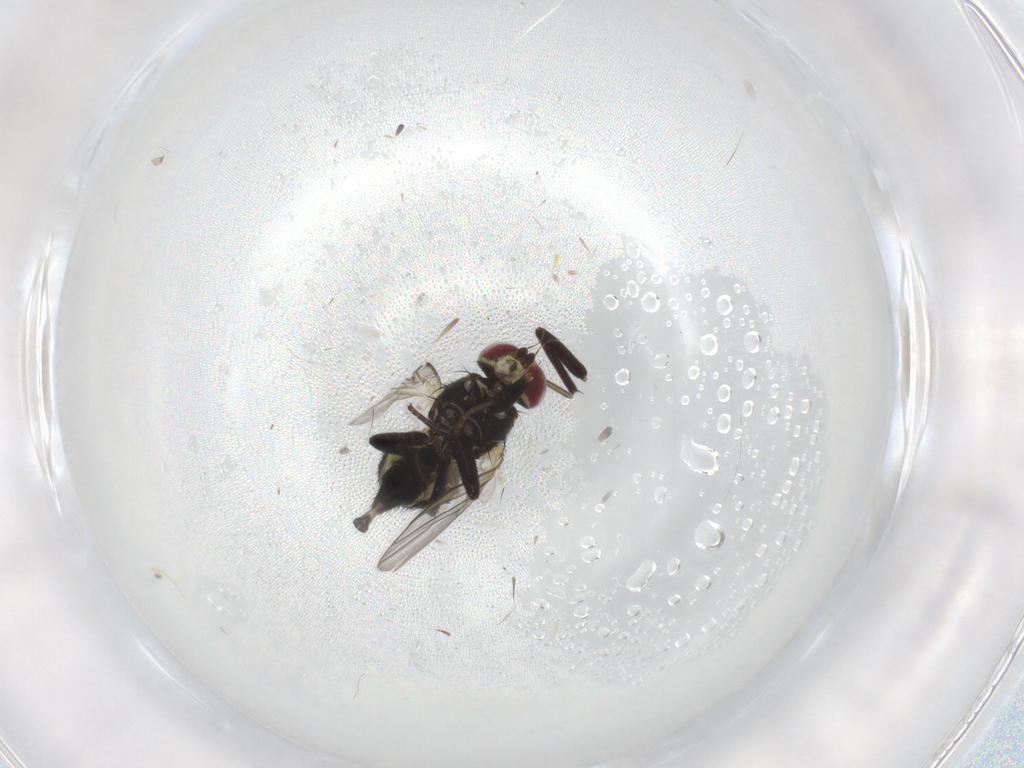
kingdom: Animalia
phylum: Arthropoda
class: Insecta
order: Diptera
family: Agromyzidae
